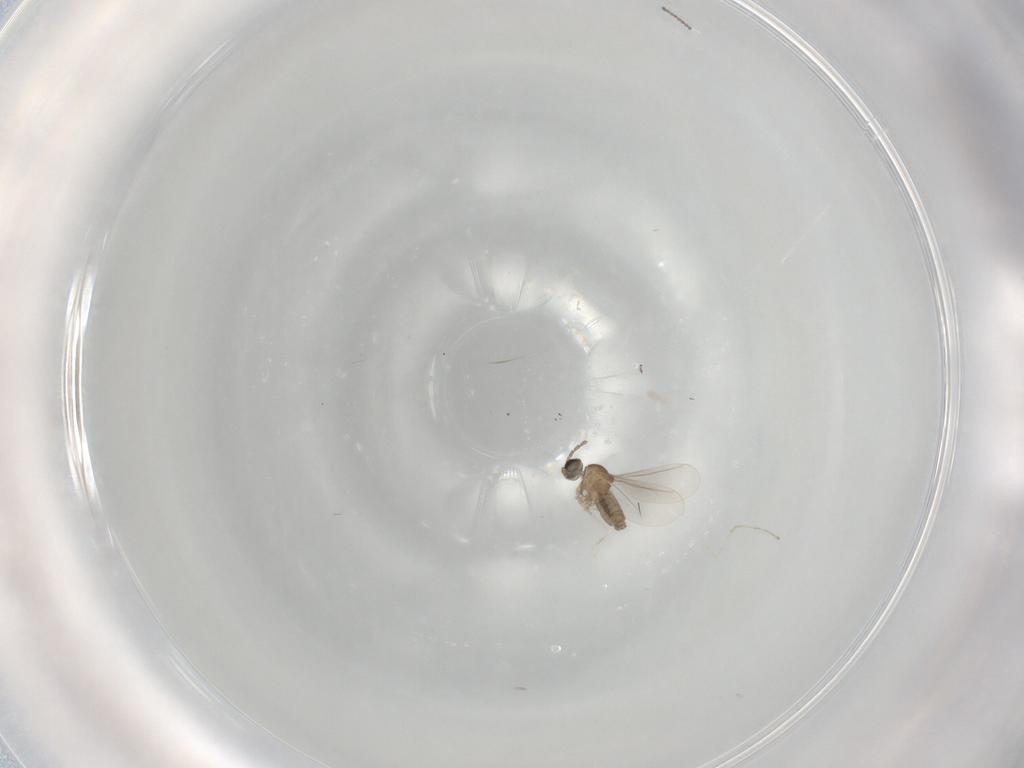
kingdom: Animalia
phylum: Arthropoda
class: Insecta
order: Diptera
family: Cecidomyiidae
